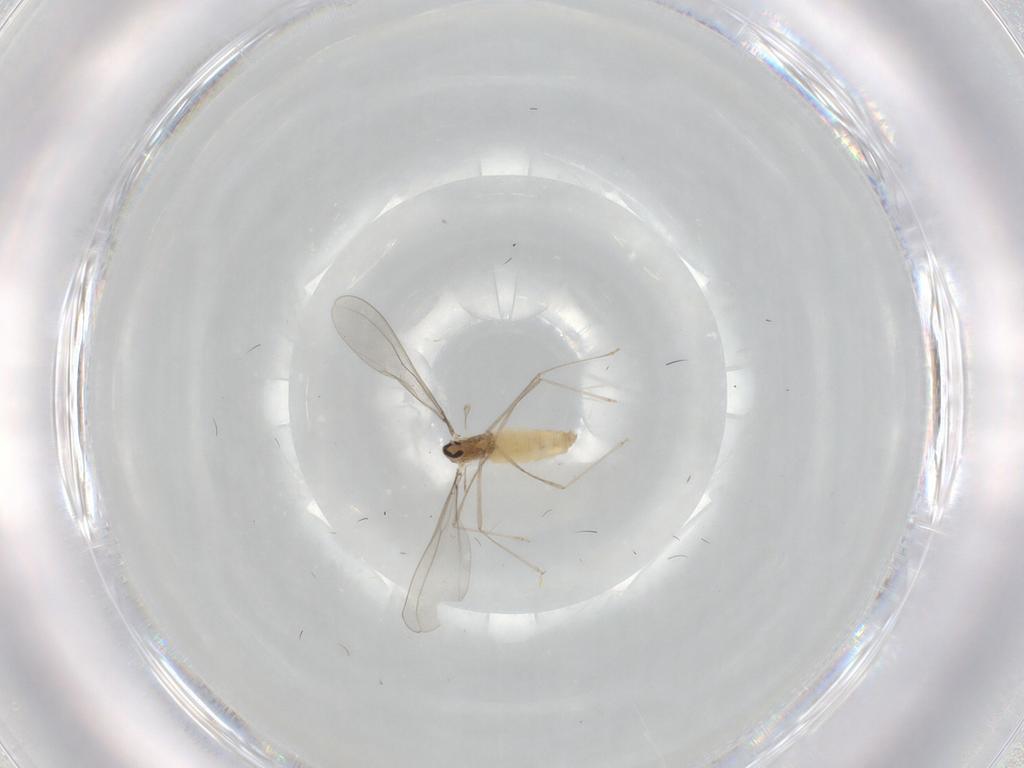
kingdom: Animalia
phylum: Arthropoda
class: Insecta
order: Diptera
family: Cecidomyiidae
